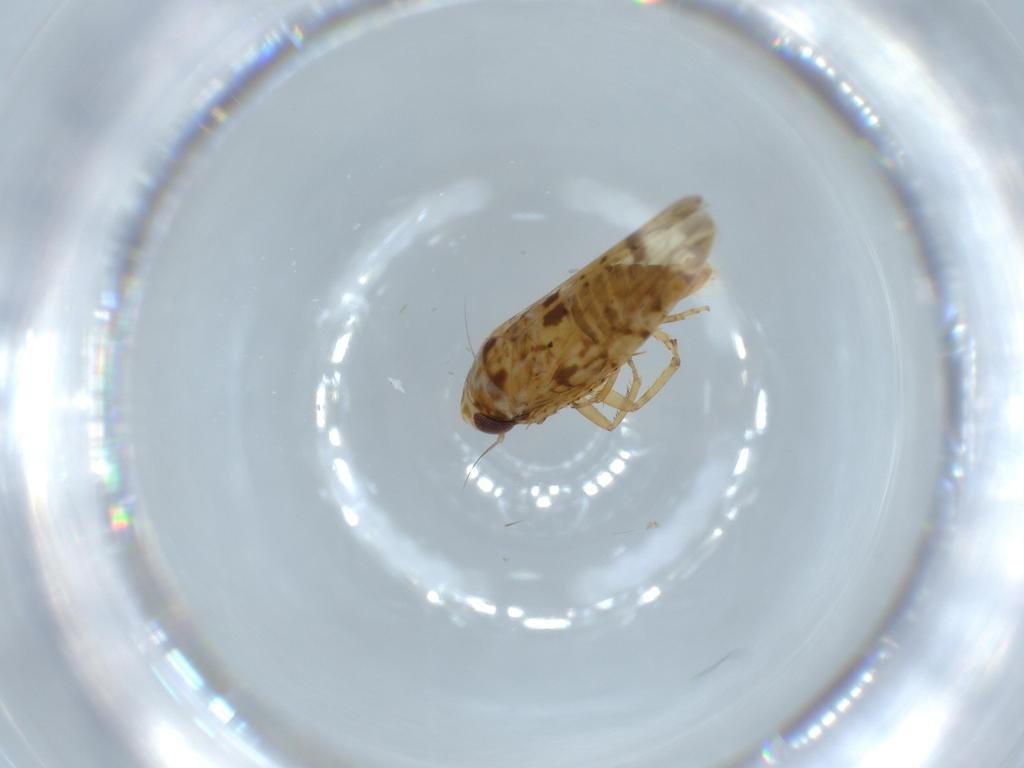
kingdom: Animalia
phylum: Arthropoda
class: Insecta
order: Hemiptera
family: Cicadellidae
